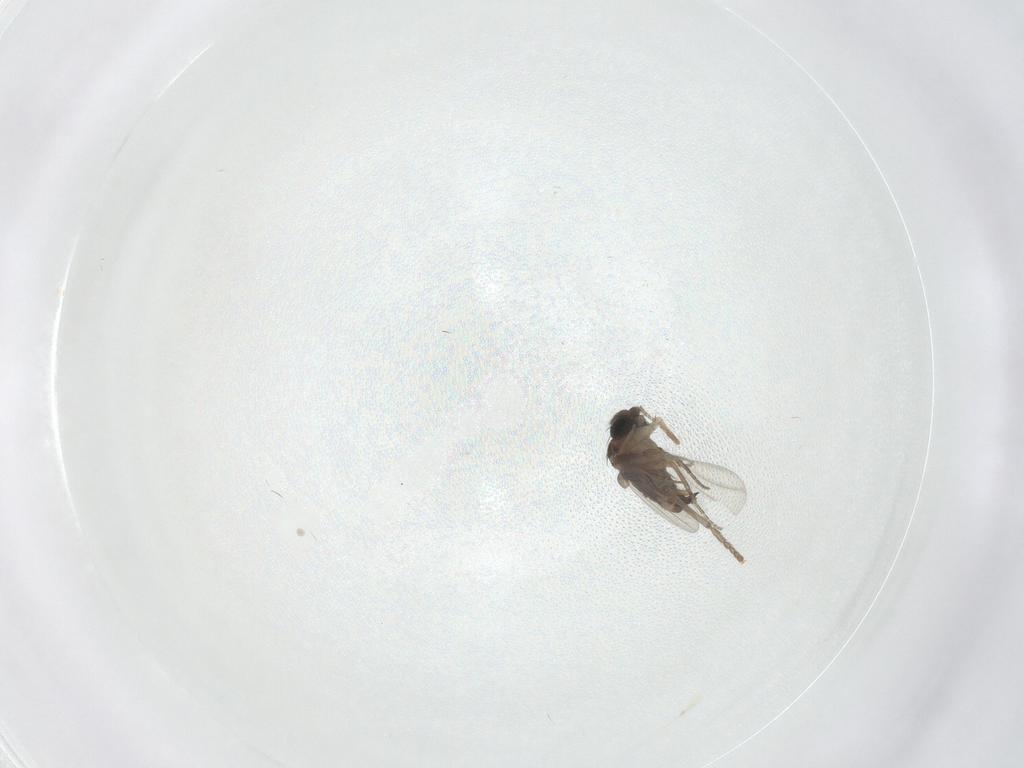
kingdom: Animalia
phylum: Arthropoda
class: Insecta
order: Diptera
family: Phoridae
